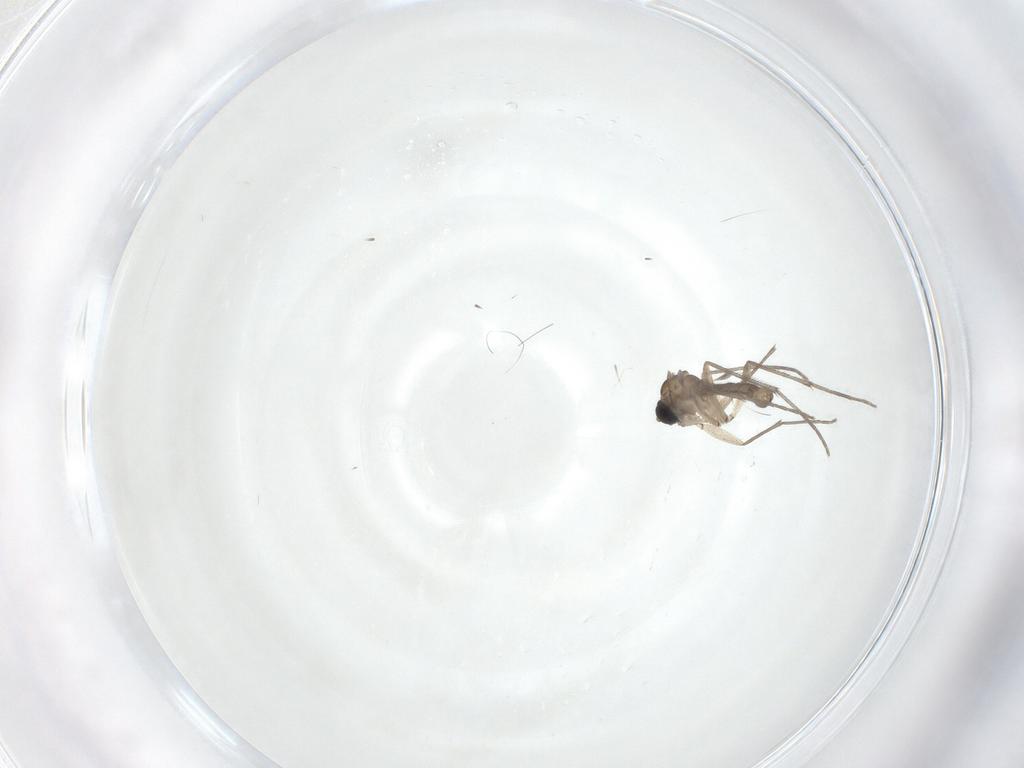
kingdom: Animalia
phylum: Arthropoda
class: Insecta
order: Diptera
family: Sciaridae
